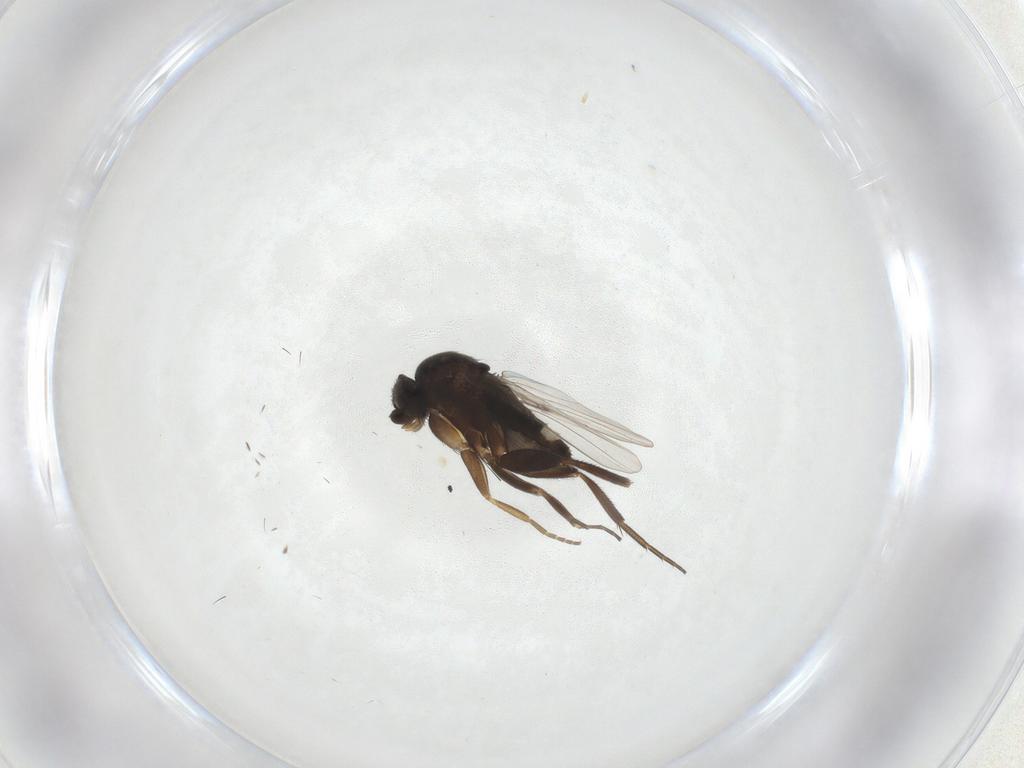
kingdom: Animalia
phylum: Arthropoda
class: Insecta
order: Diptera
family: Phoridae
